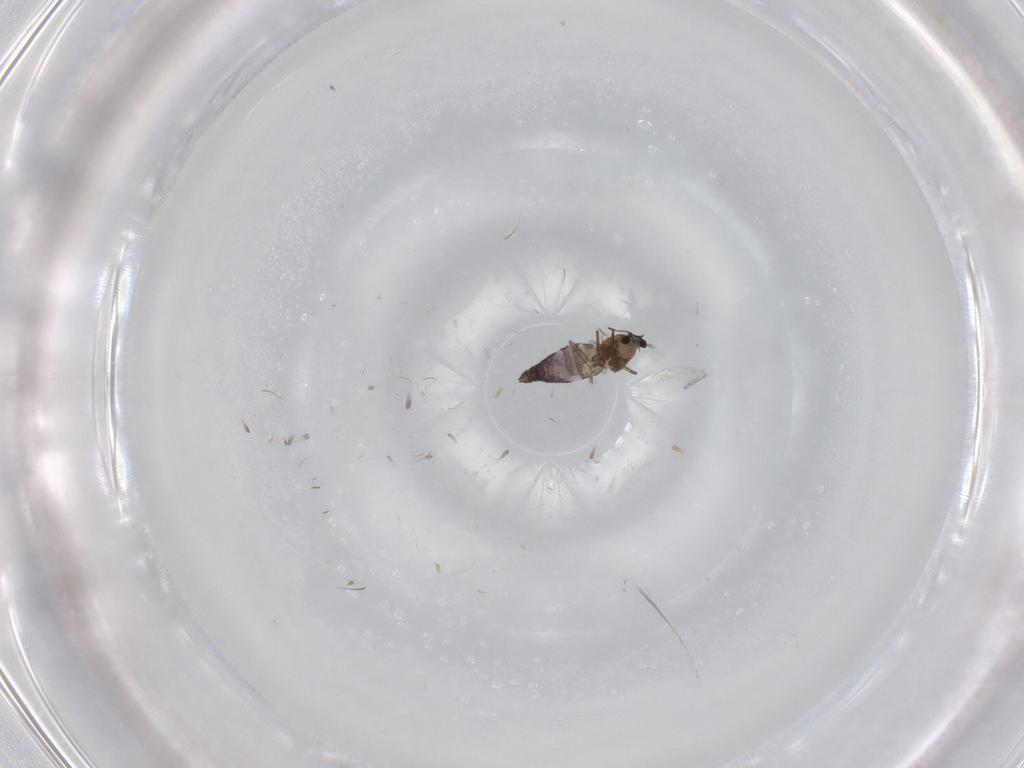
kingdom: Animalia
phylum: Arthropoda
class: Insecta
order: Diptera
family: Chironomidae
